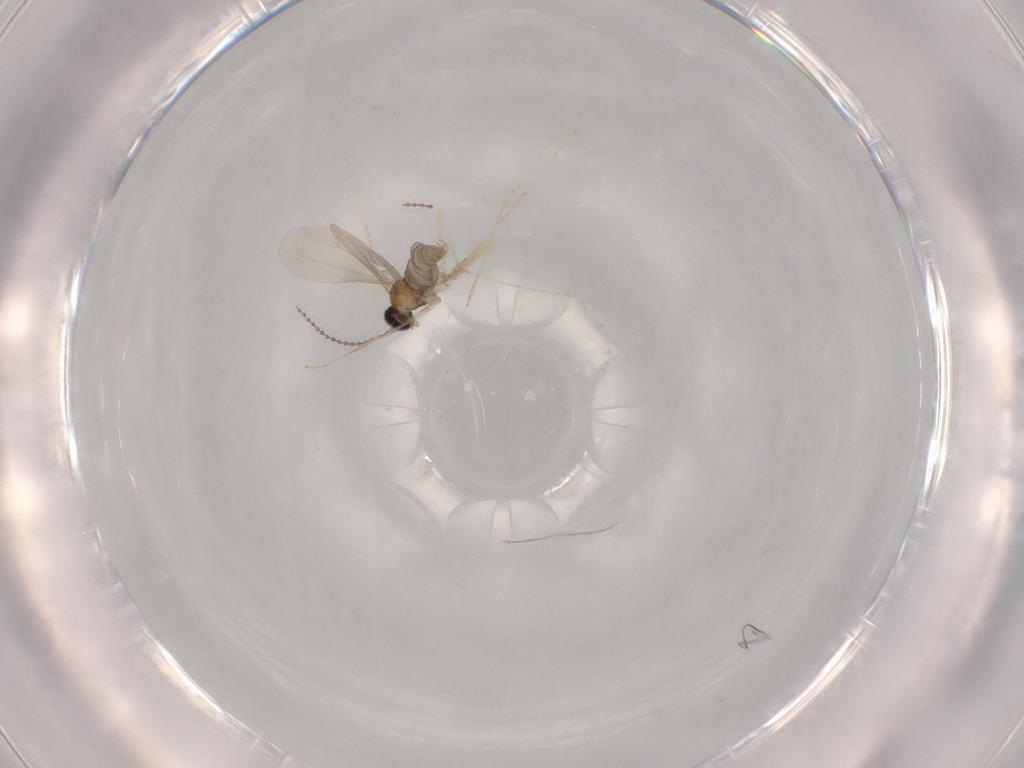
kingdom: Animalia
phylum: Arthropoda
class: Insecta
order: Diptera
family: Cecidomyiidae
